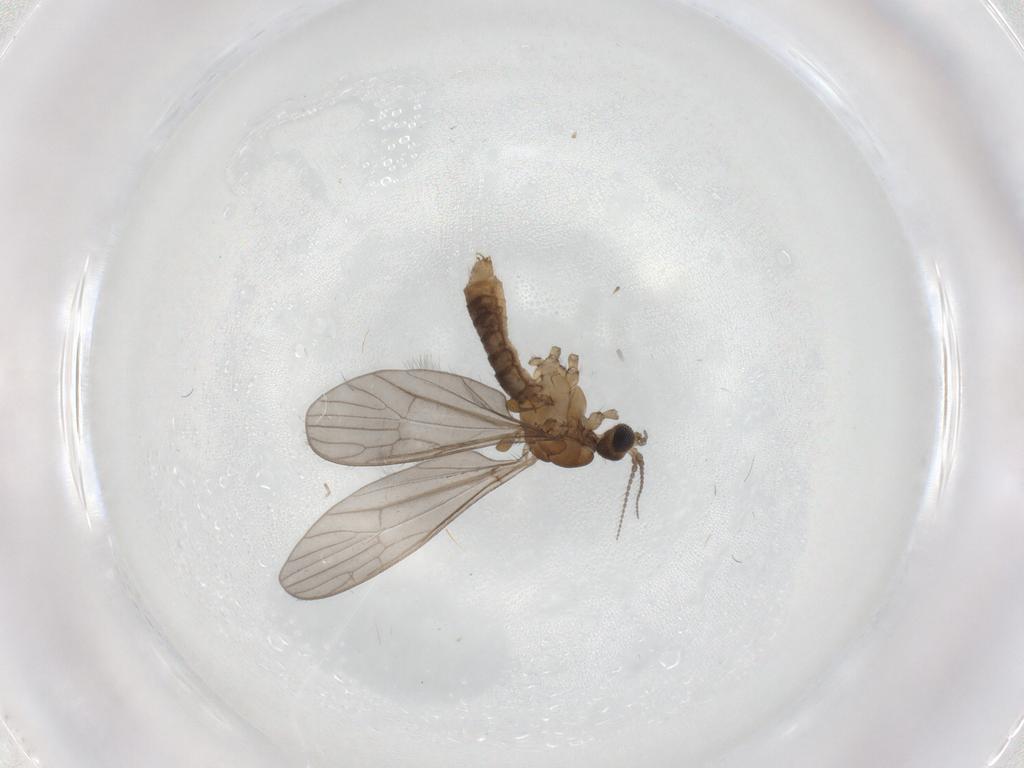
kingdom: Animalia
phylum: Arthropoda
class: Insecta
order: Diptera
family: Limoniidae
